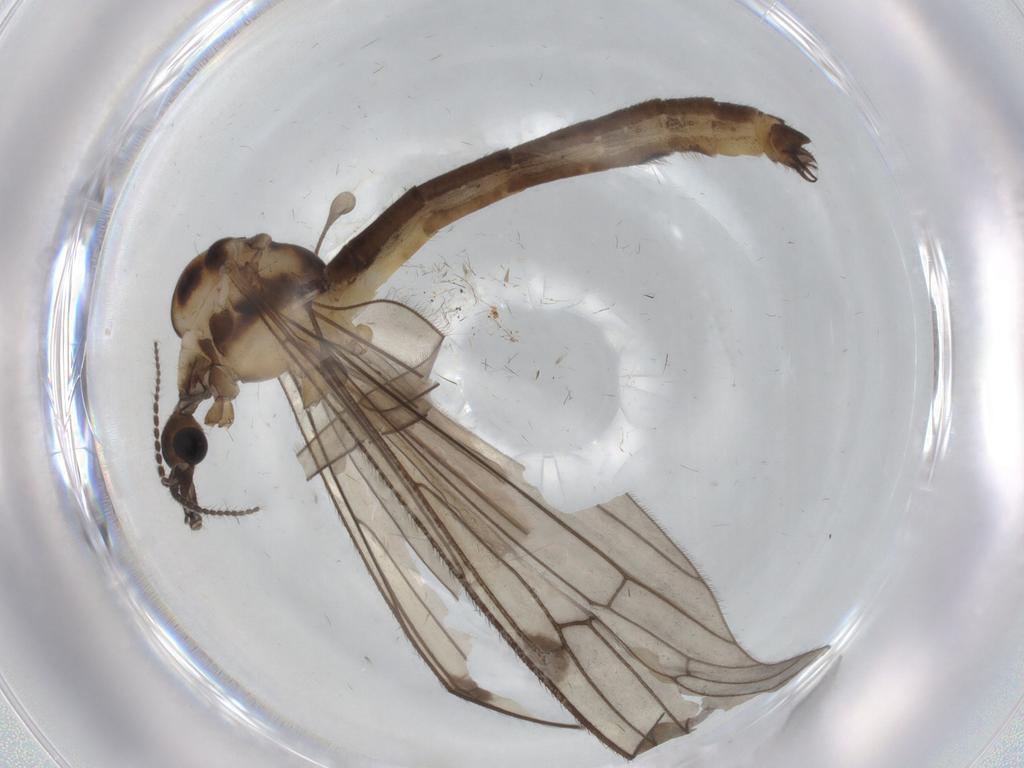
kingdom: Animalia
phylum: Arthropoda
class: Insecta
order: Diptera
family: Limoniidae
